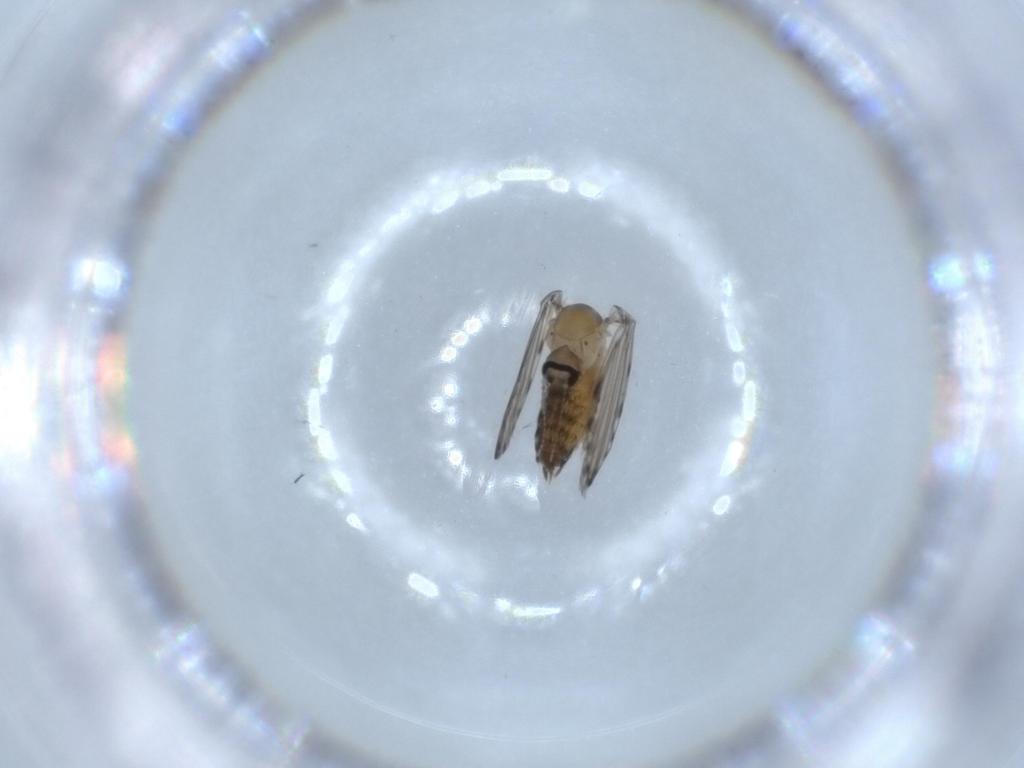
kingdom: Animalia
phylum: Arthropoda
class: Insecta
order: Diptera
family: Psychodidae
